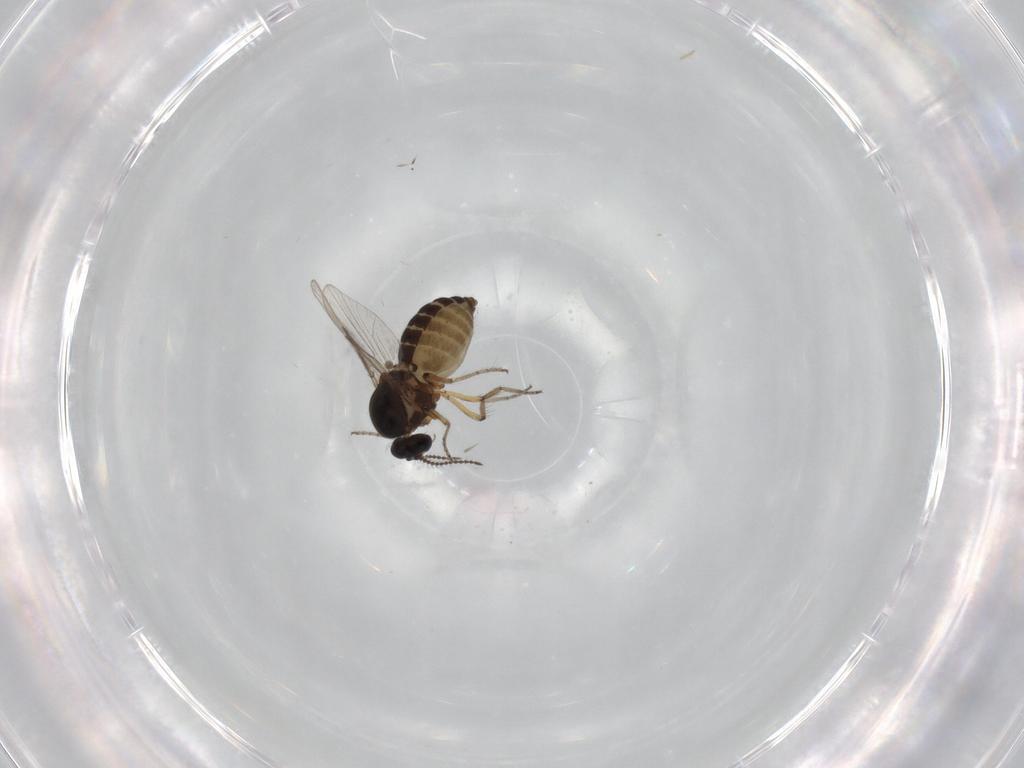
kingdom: Animalia
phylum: Arthropoda
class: Insecta
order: Diptera
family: Ceratopogonidae
